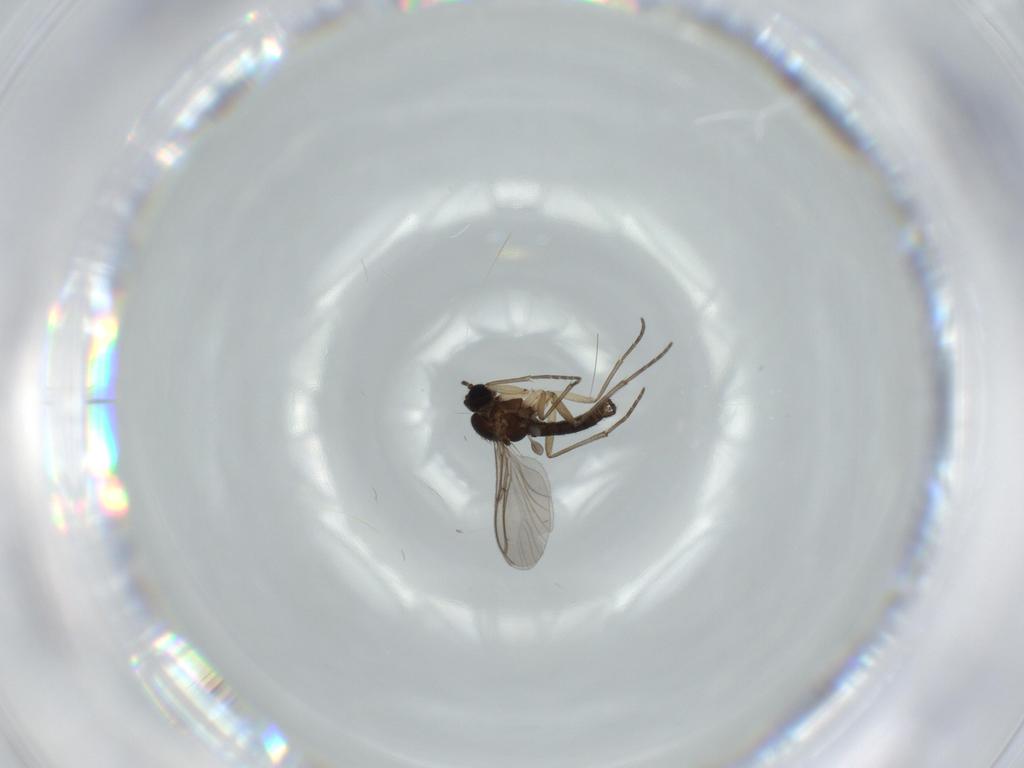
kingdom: Animalia
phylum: Arthropoda
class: Insecta
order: Diptera
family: Sciaridae
